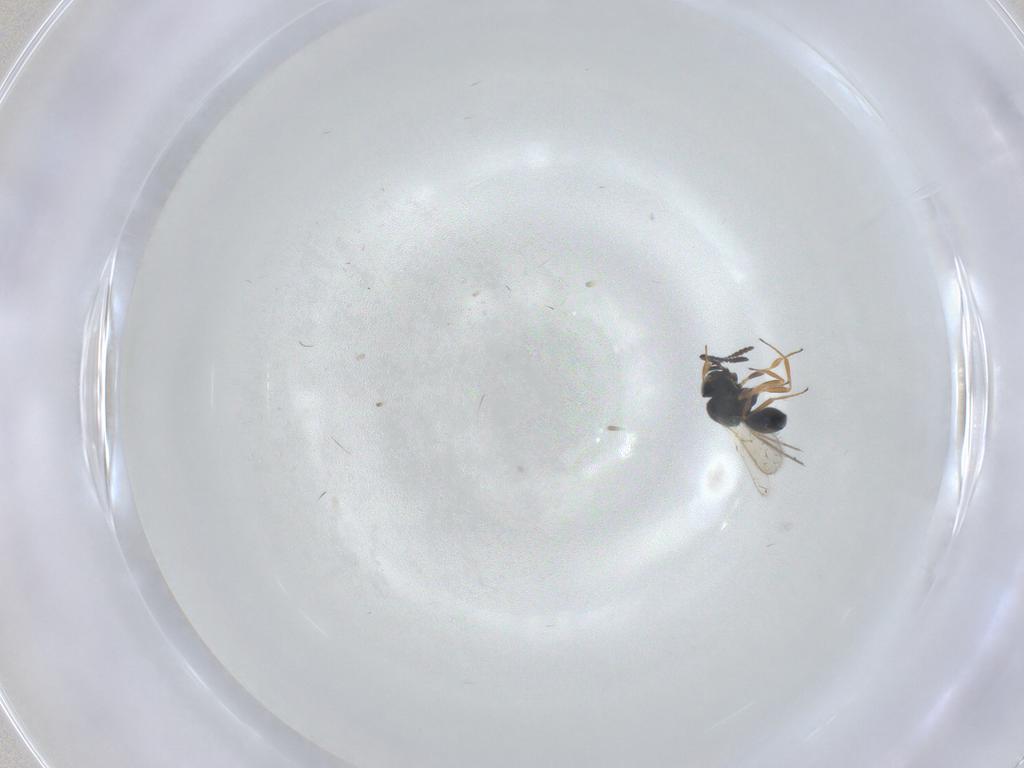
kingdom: Animalia
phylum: Arthropoda
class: Insecta
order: Hymenoptera
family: Scelionidae
